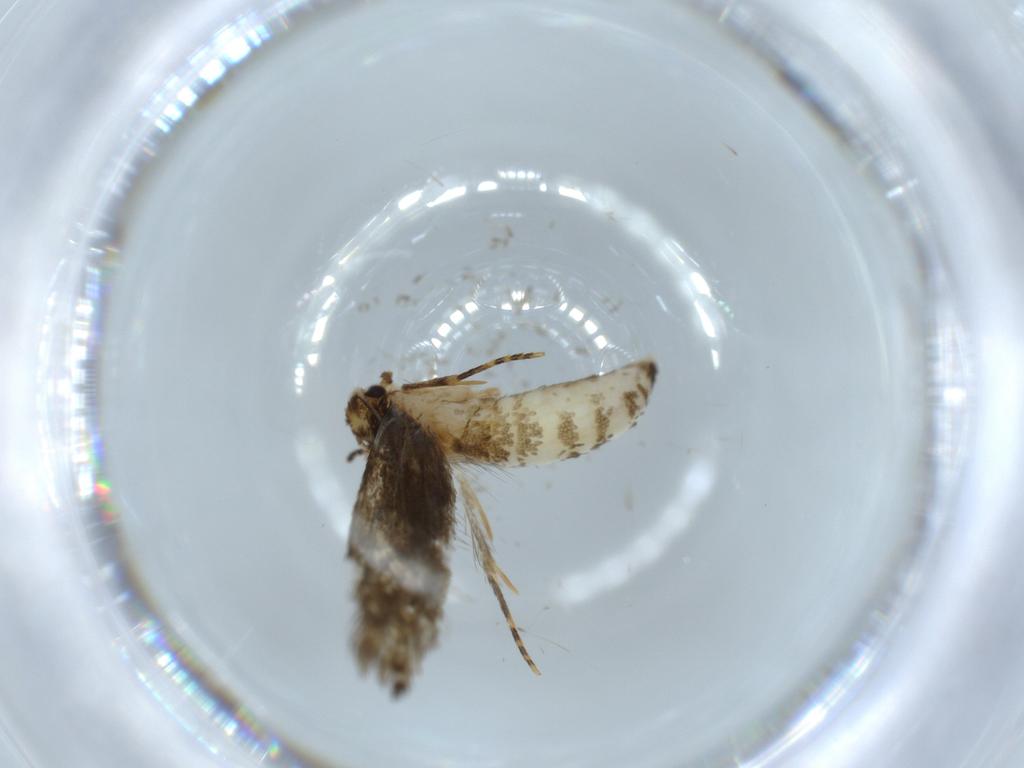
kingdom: Animalia
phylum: Arthropoda
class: Insecta
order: Lepidoptera
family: Tineidae
